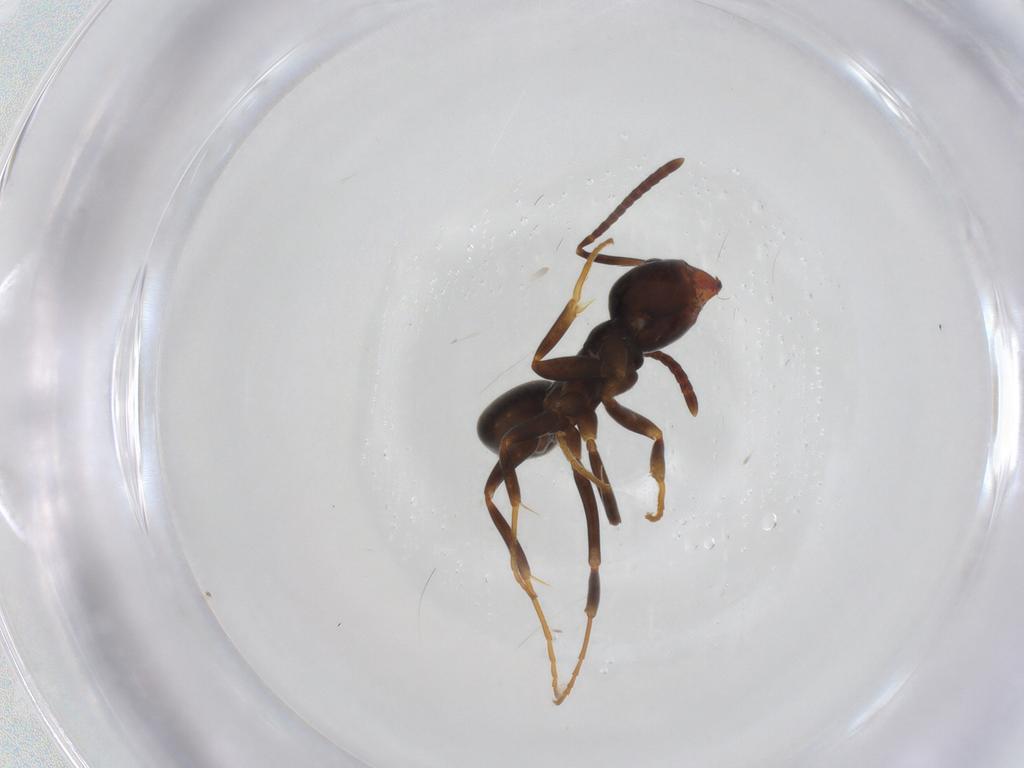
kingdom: Animalia
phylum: Arthropoda
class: Insecta
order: Hymenoptera
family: Formicidae
